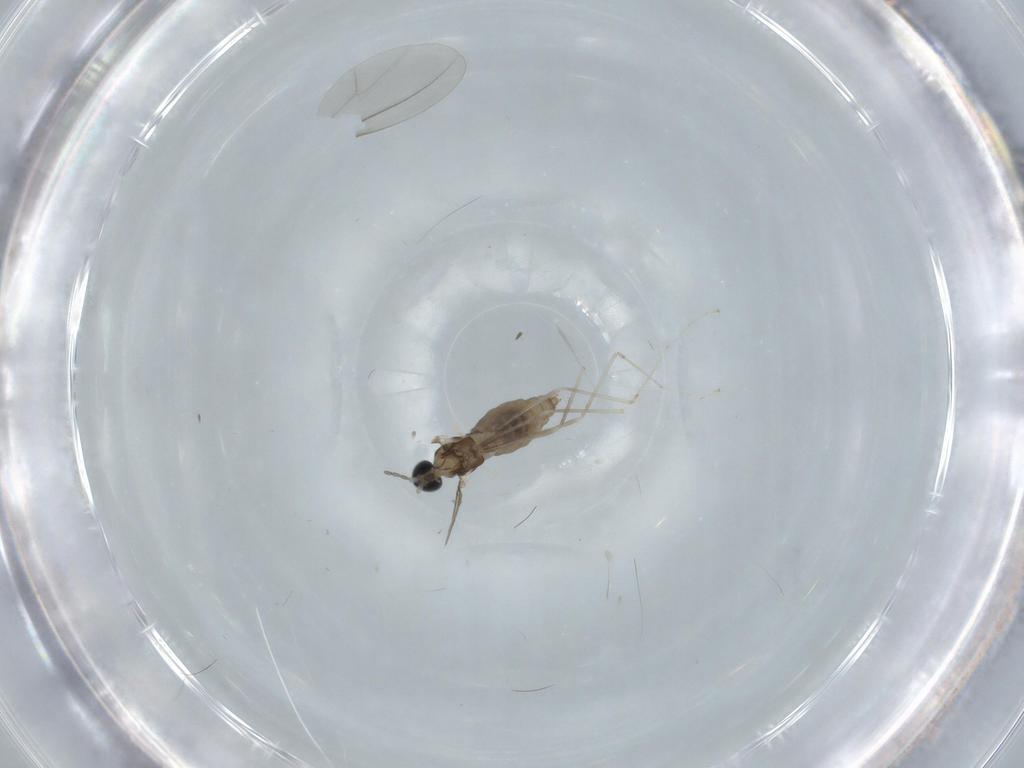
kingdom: Animalia
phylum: Arthropoda
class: Insecta
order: Diptera
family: Cecidomyiidae
